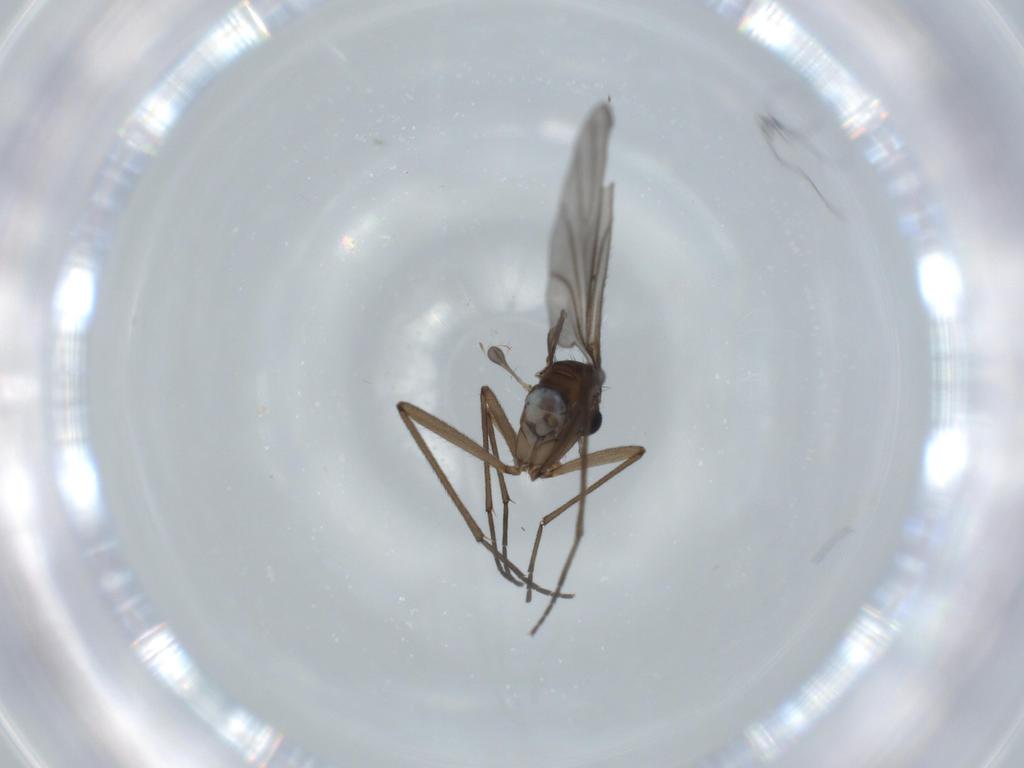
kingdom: Animalia
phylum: Arthropoda
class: Insecta
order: Diptera
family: Sciaridae
